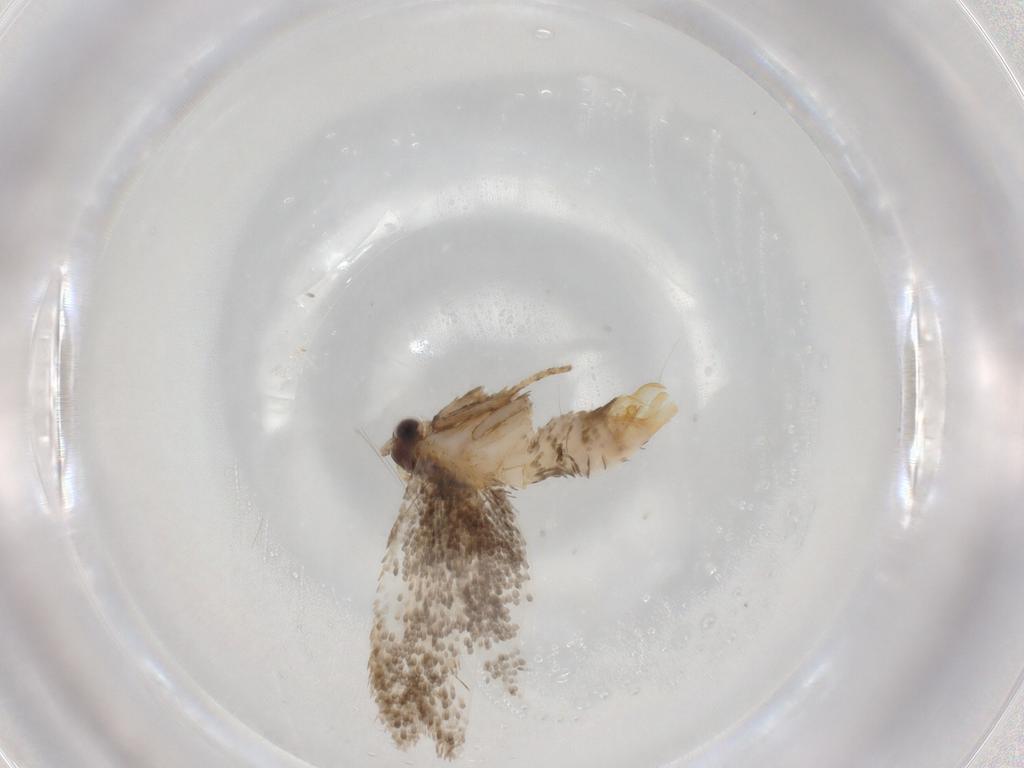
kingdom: Animalia
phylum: Arthropoda
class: Insecta
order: Lepidoptera
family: Tineidae
